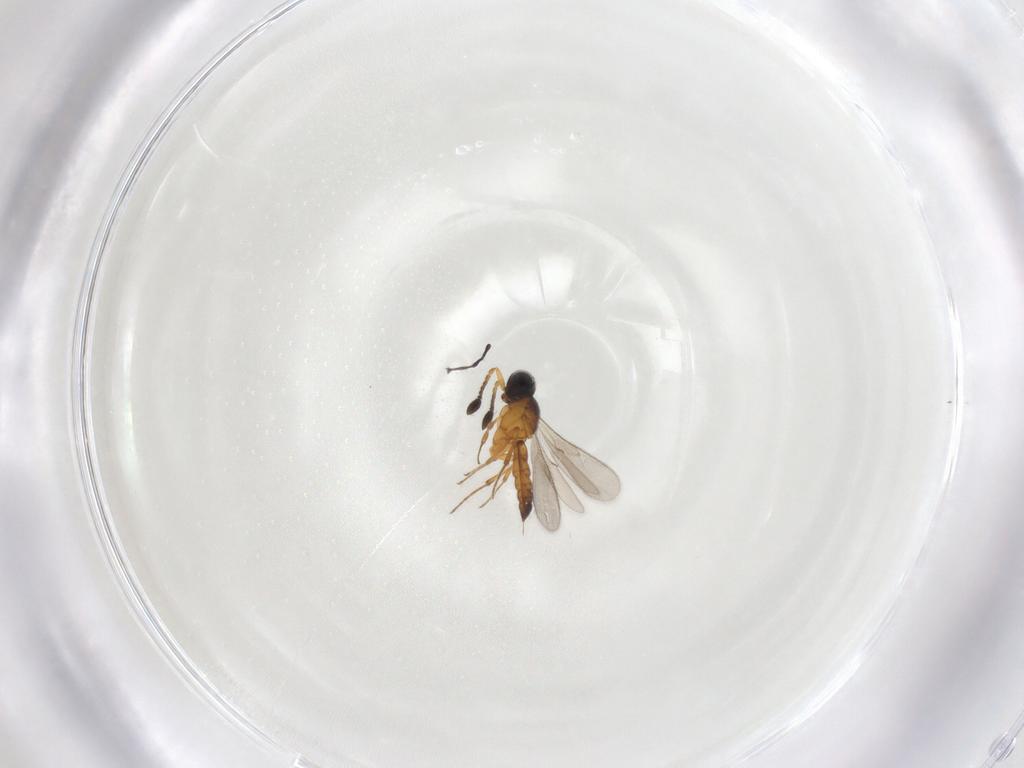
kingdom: Animalia
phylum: Arthropoda
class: Insecta
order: Hymenoptera
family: Scelionidae
